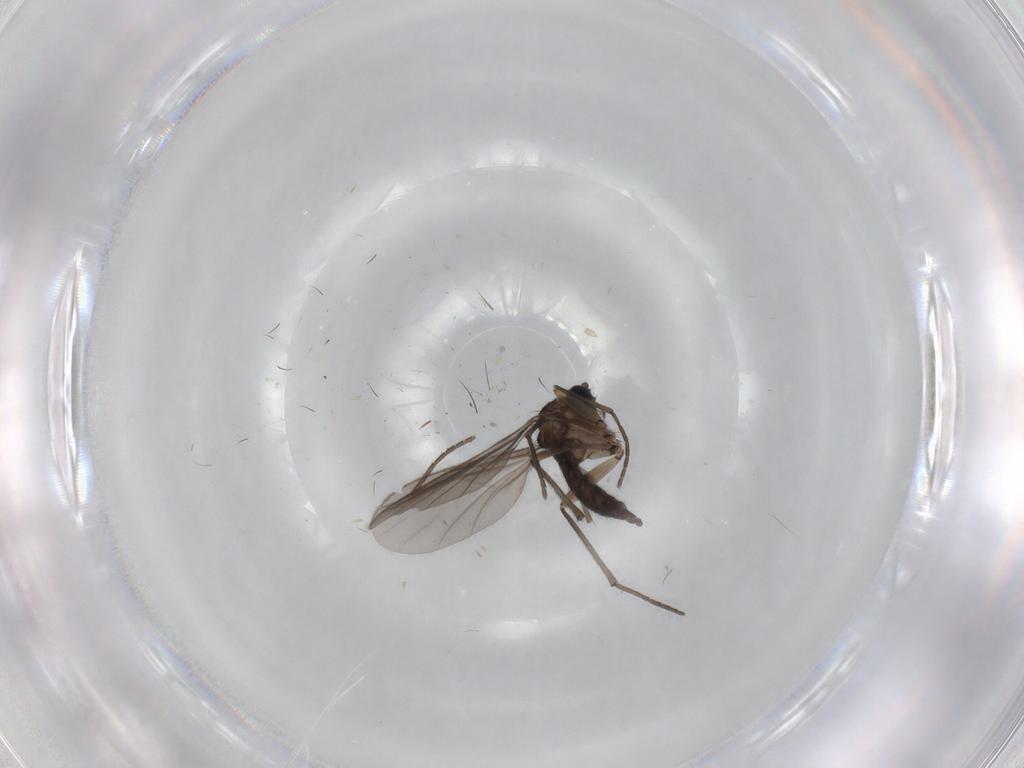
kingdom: Animalia
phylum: Arthropoda
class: Insecta
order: Diptera
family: Sciaridae
